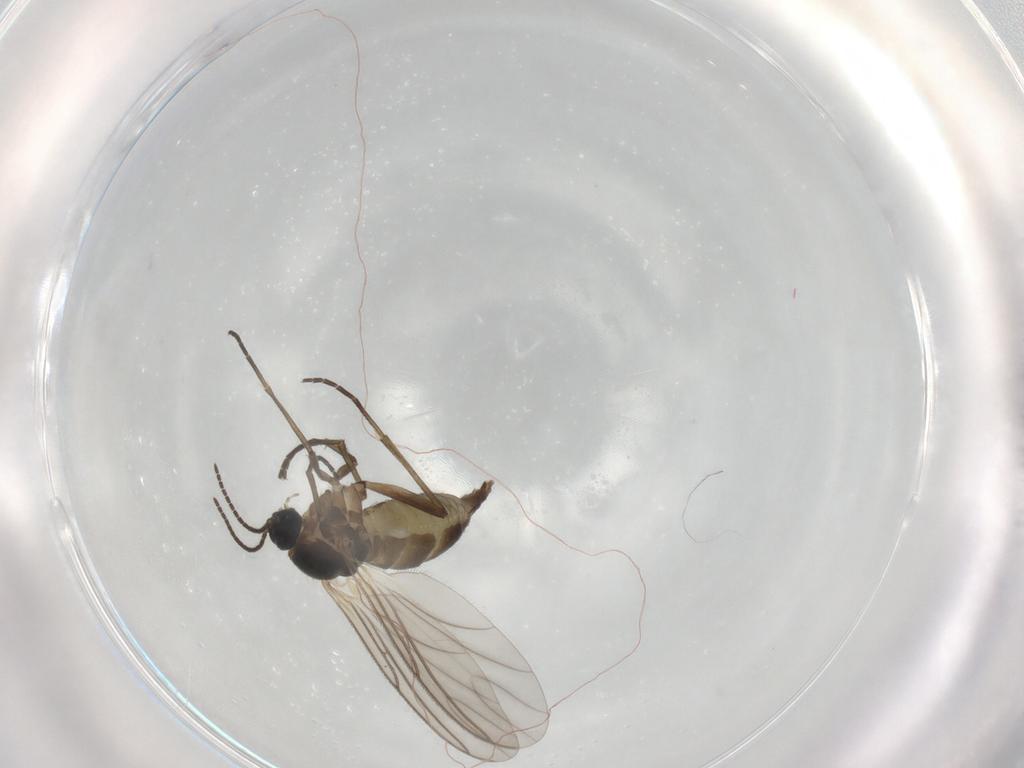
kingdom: Animalia
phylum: Arthropoda
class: Insecta
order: Diptera
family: Phoridae
